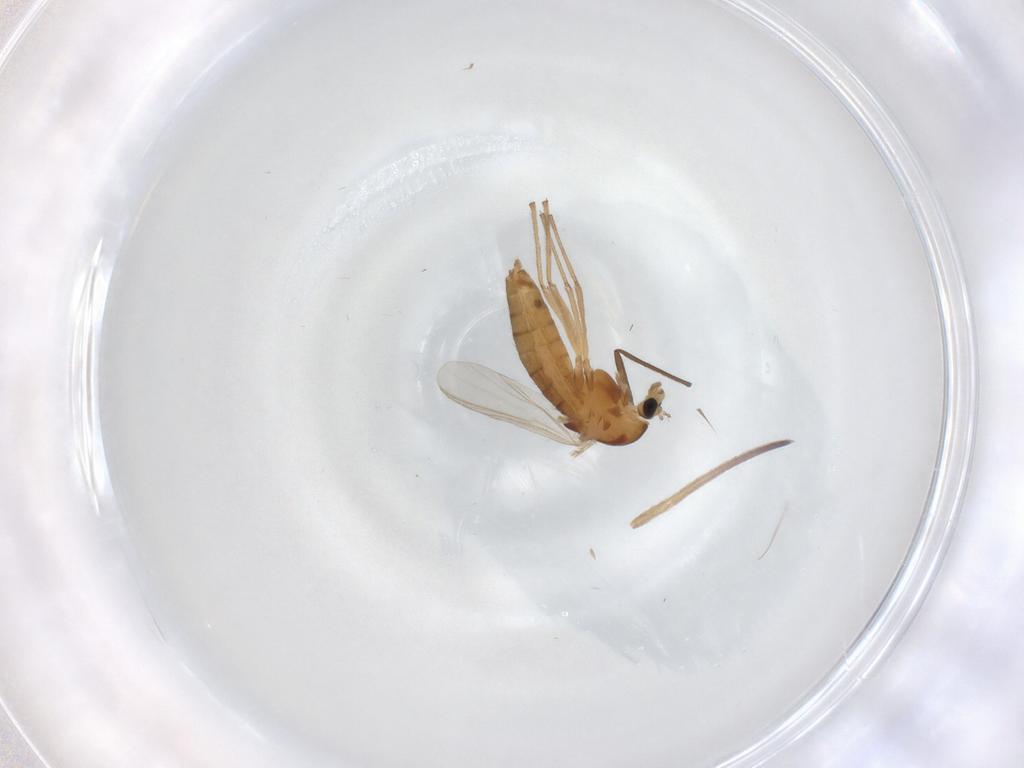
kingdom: Animalia
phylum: Arthropoda
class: Insecta
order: Diptera
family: Chironomidae
